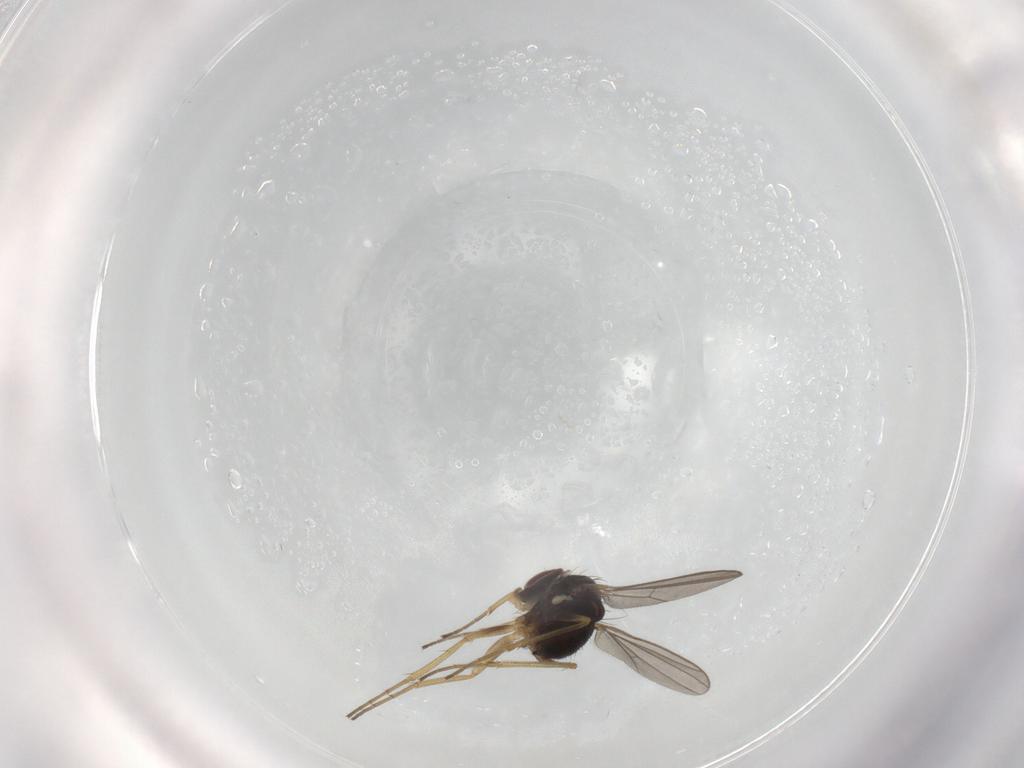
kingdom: Animalia
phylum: Arthropoda
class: Insecta
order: Diptera
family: Dolichopodidae
